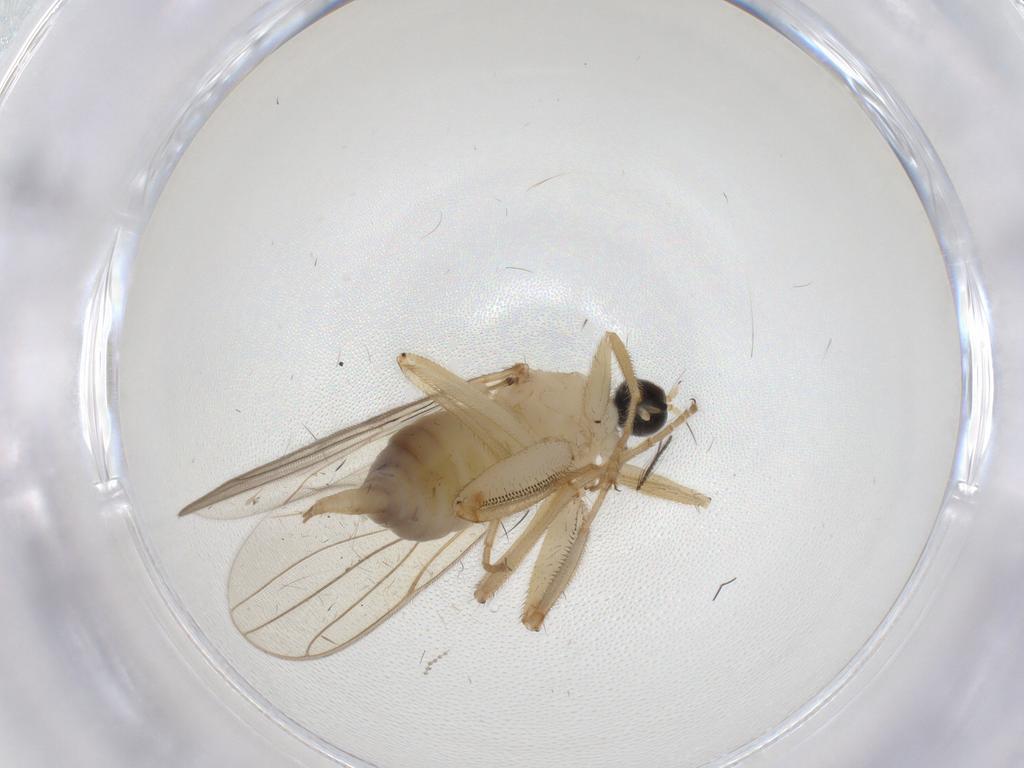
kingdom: Animalia
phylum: Arthropoda
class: Insecta
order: Diptera
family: Hybotidae
